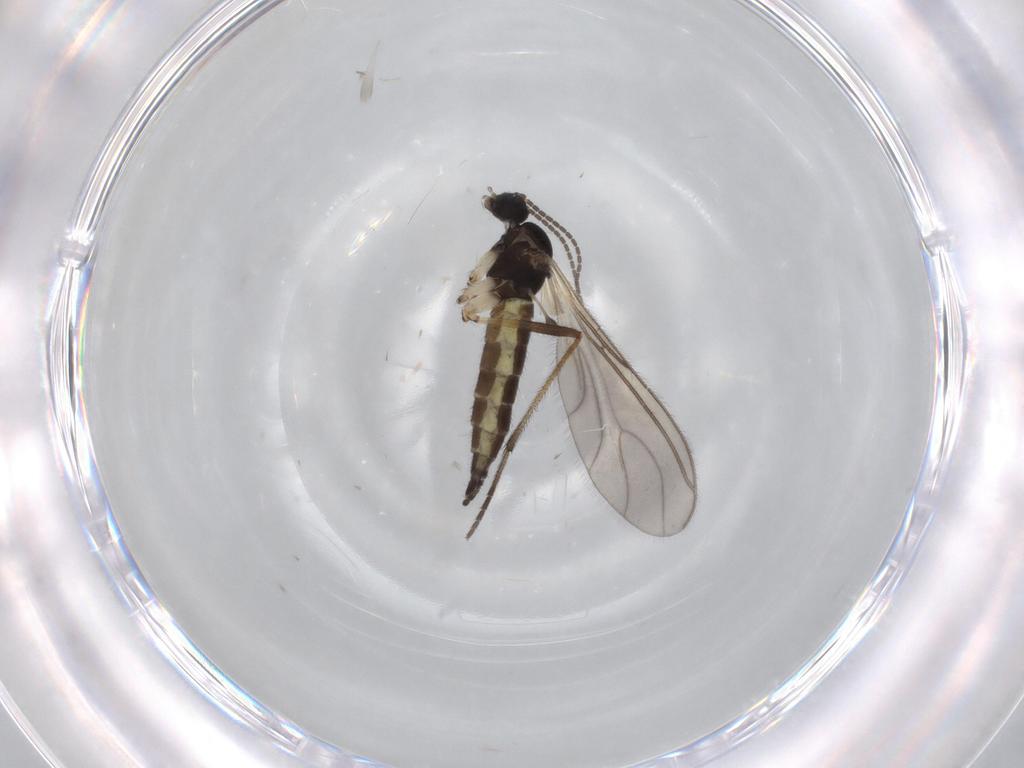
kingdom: Animalia
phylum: Arthropoda
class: Insecta
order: Diptera
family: Sciaridae
